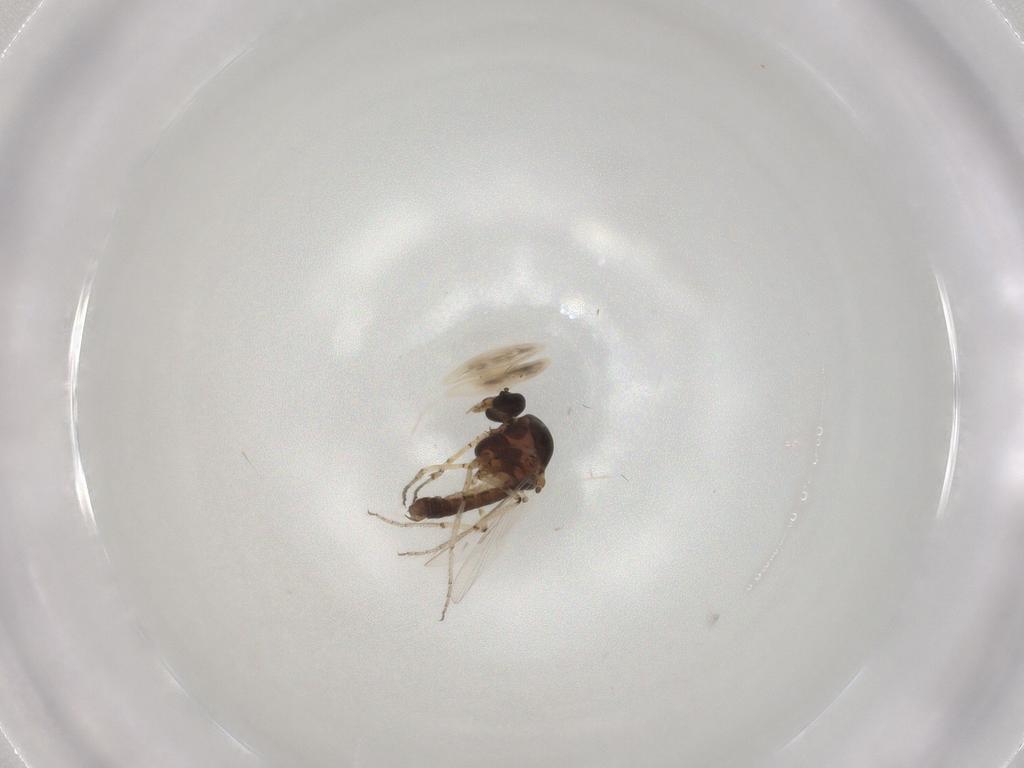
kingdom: Animalia
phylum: Arthropoda
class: Insecta
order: Diptera
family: Ceratopogonidae
